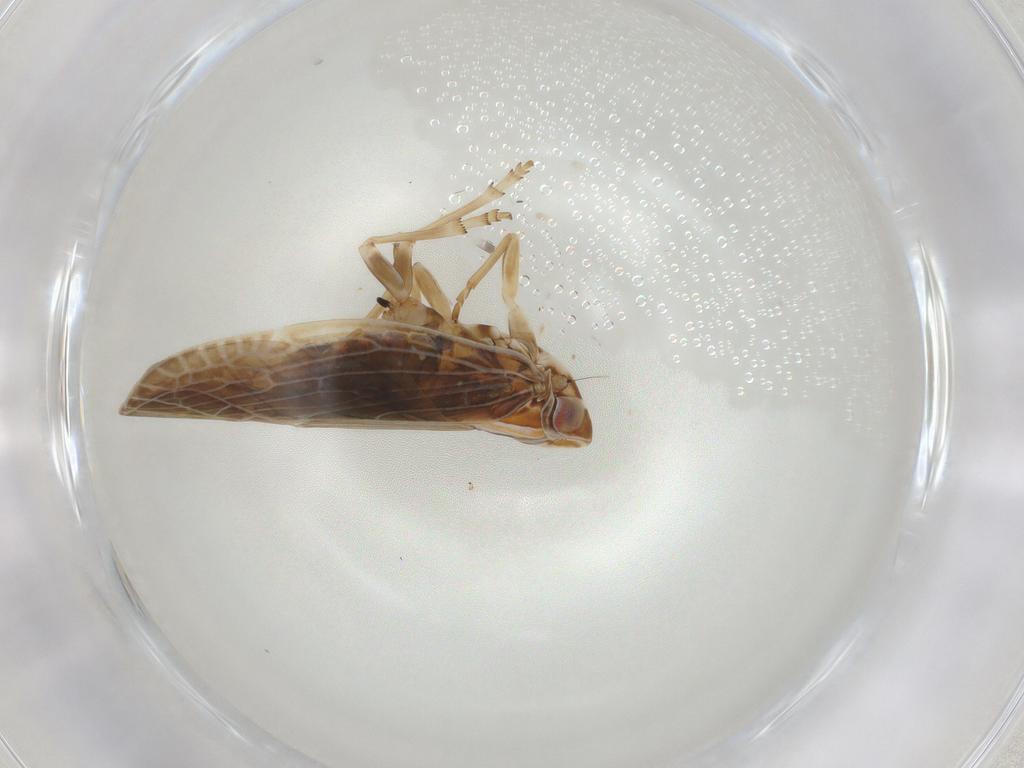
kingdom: Animalia
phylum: Arthropoda
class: Insecta
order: Hemiptera
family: Achilidae
